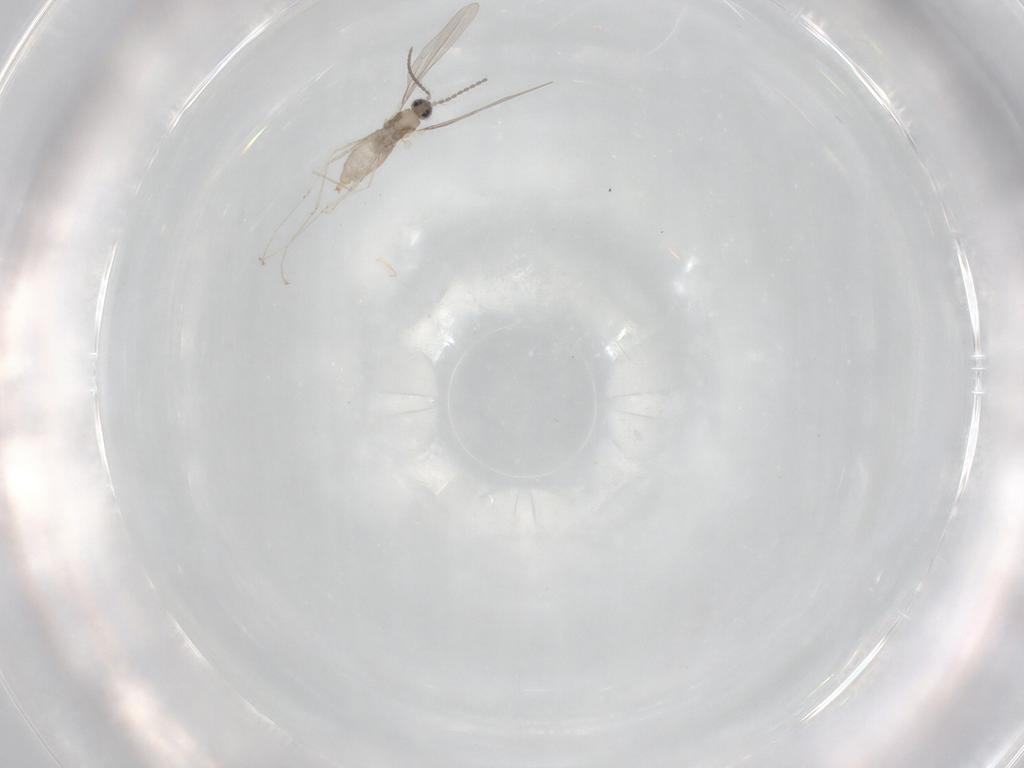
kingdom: Animalia
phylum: Arthropoda
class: Insecta
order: Diptera
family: Cecidomyiidae
